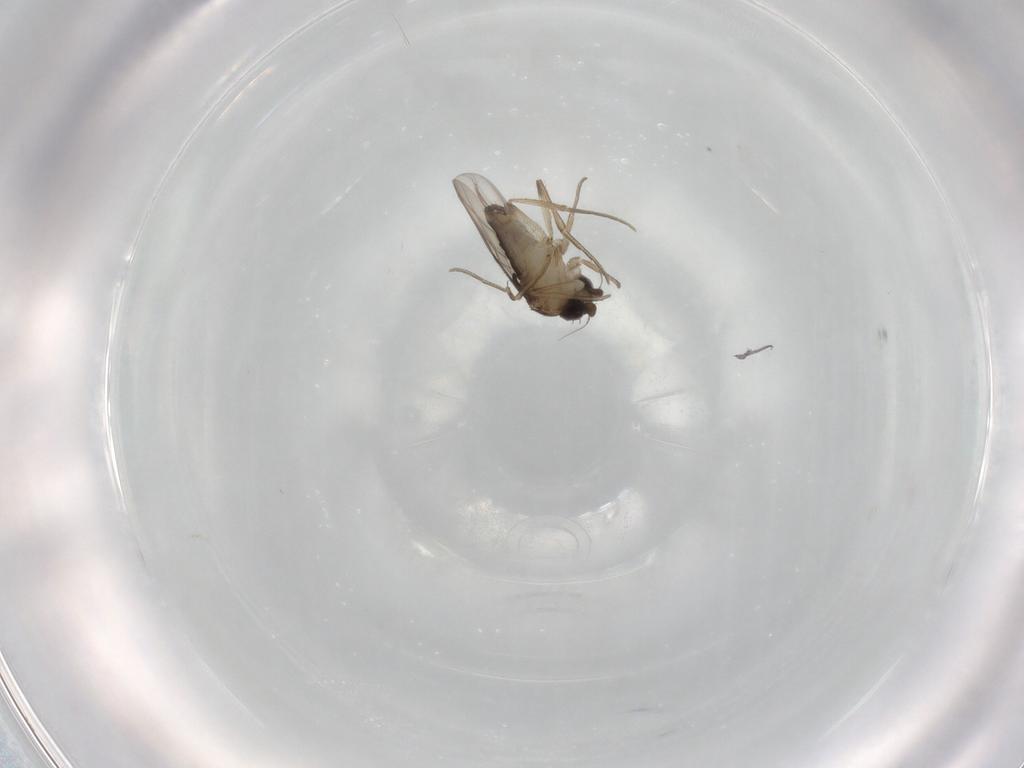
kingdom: Animalia
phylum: Arthropoda
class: Insecta
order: Diptera
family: Phoridae
